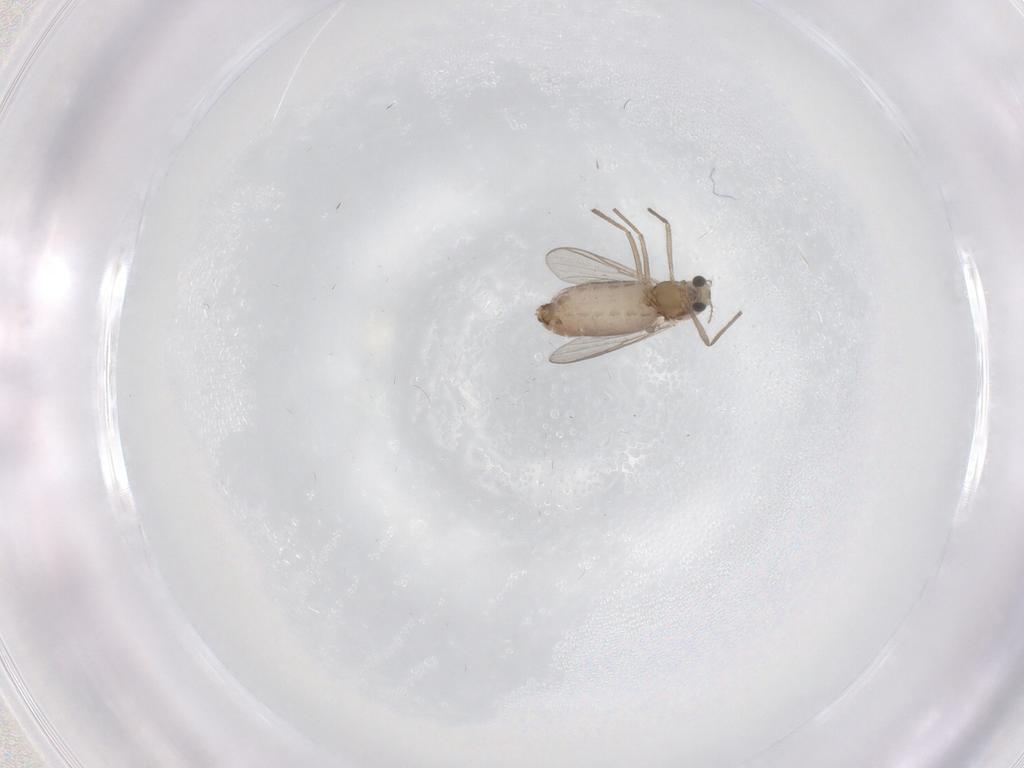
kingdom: Animalia
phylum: Arthropoda
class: Insecta
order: Diptera
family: Chironomidae
